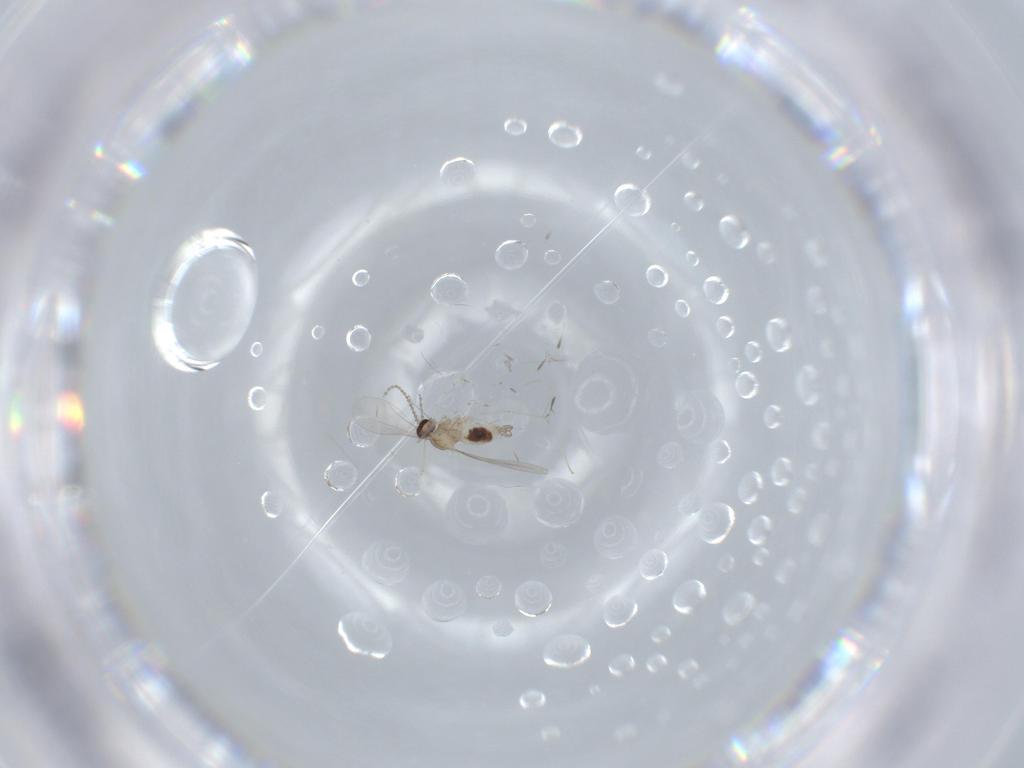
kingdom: Animalia
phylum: Arthropoda
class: Insecta
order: Diptera
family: Cecidomyiidae
